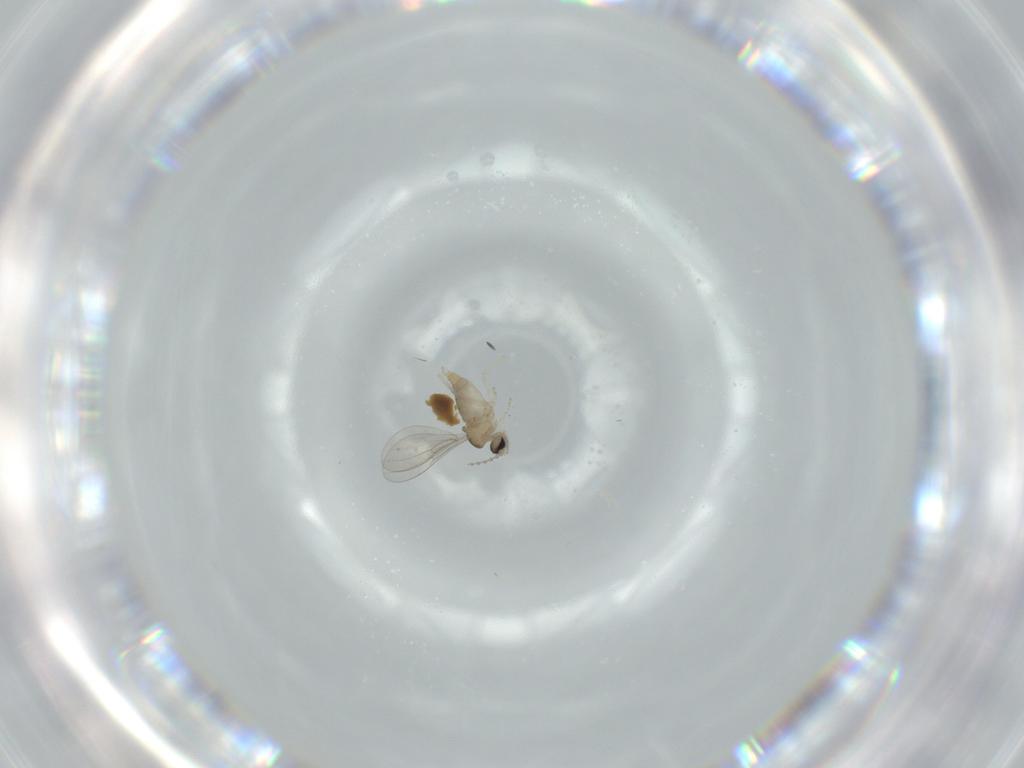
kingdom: Animalia
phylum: Arthropoda
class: Insecta
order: Diptera
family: Cecidomyiidae
